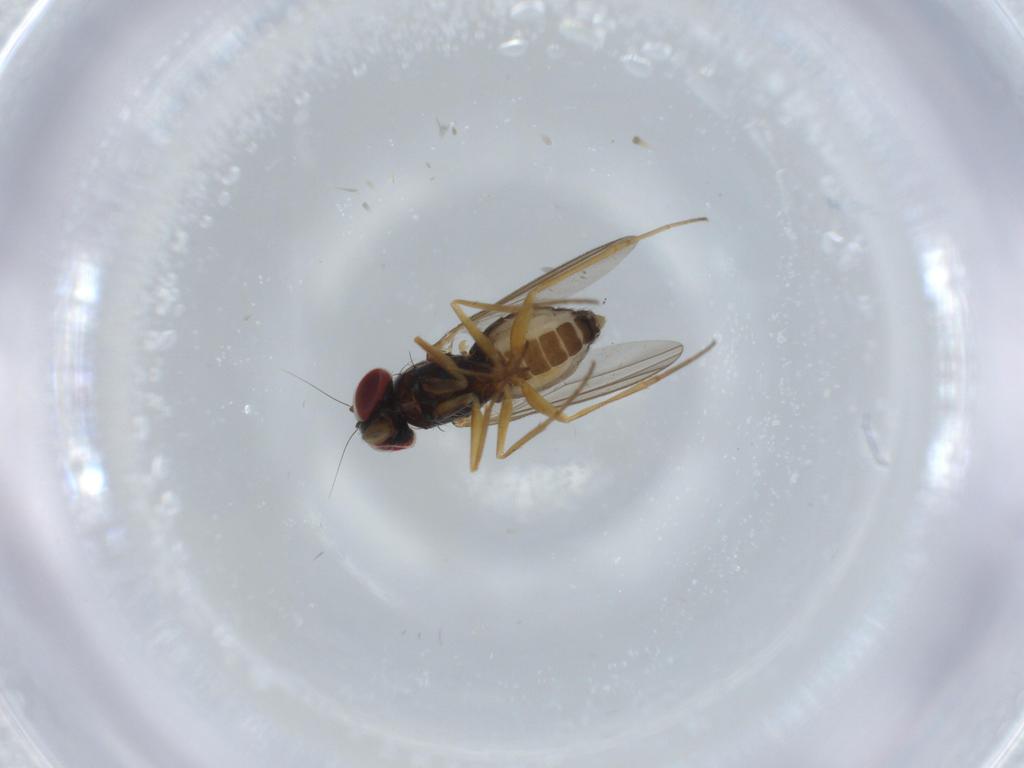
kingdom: Animalia
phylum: Arthropoda
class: Insecta
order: Diptera
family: Dolichopodidae
